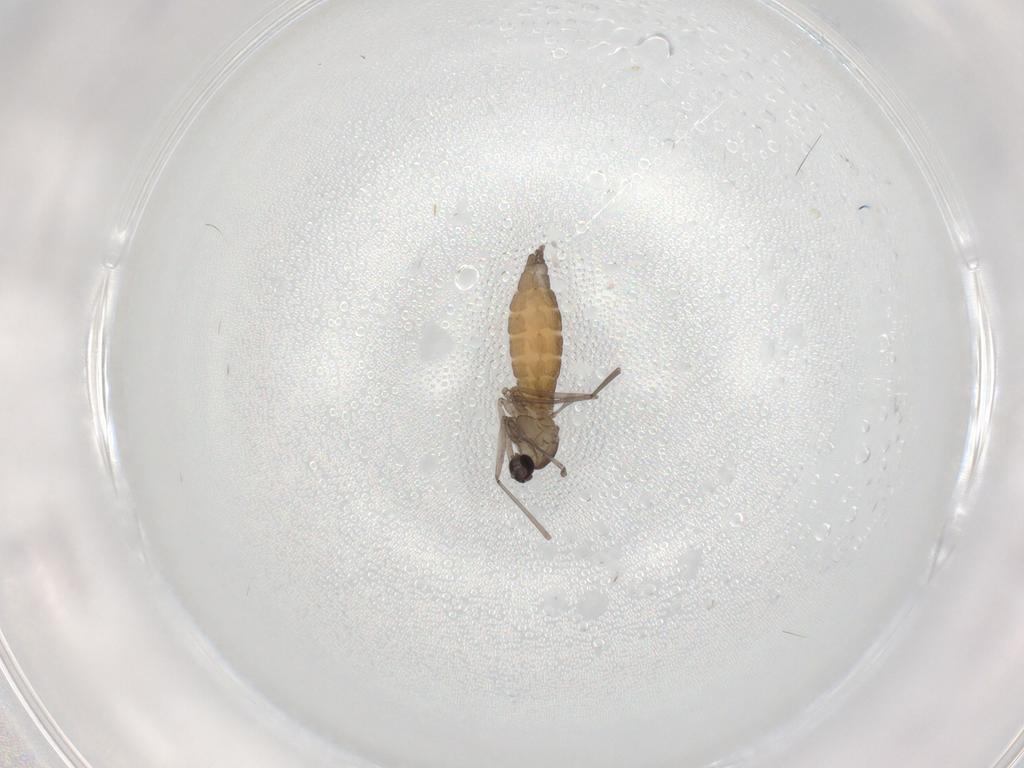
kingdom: Animalia
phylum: Arthropoda
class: Insecta
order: Diptera
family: Cecidomyiidae
